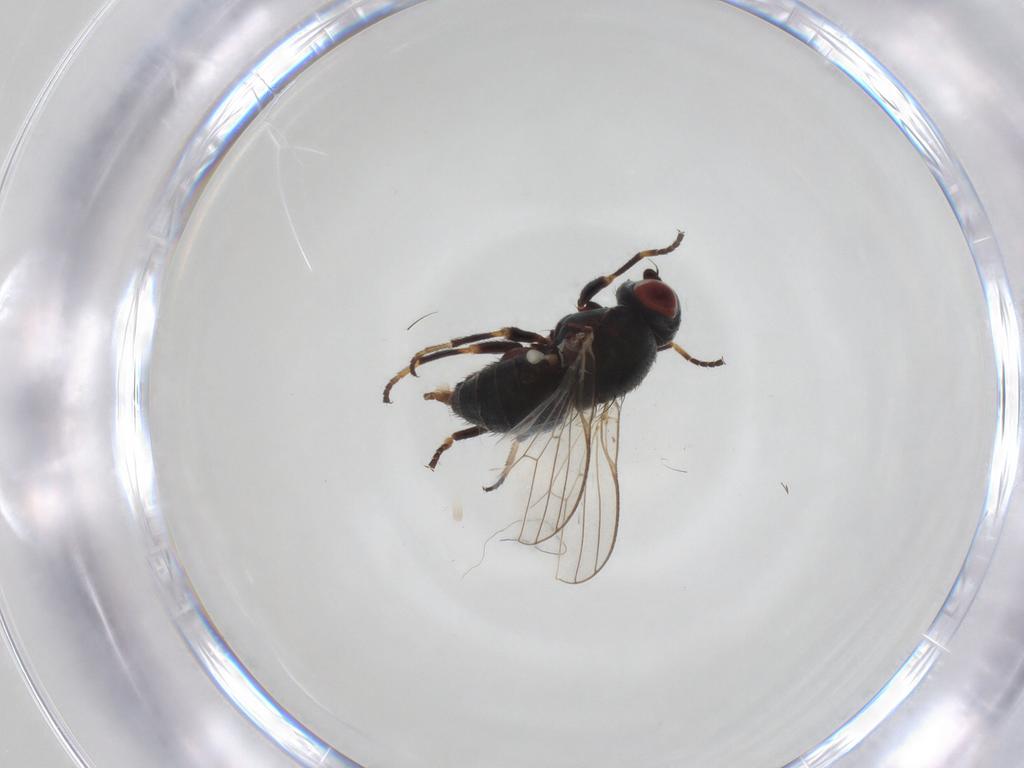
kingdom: Animalia
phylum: Arthropoda
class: Insecta
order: Diptera
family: Chamaemyiidae
